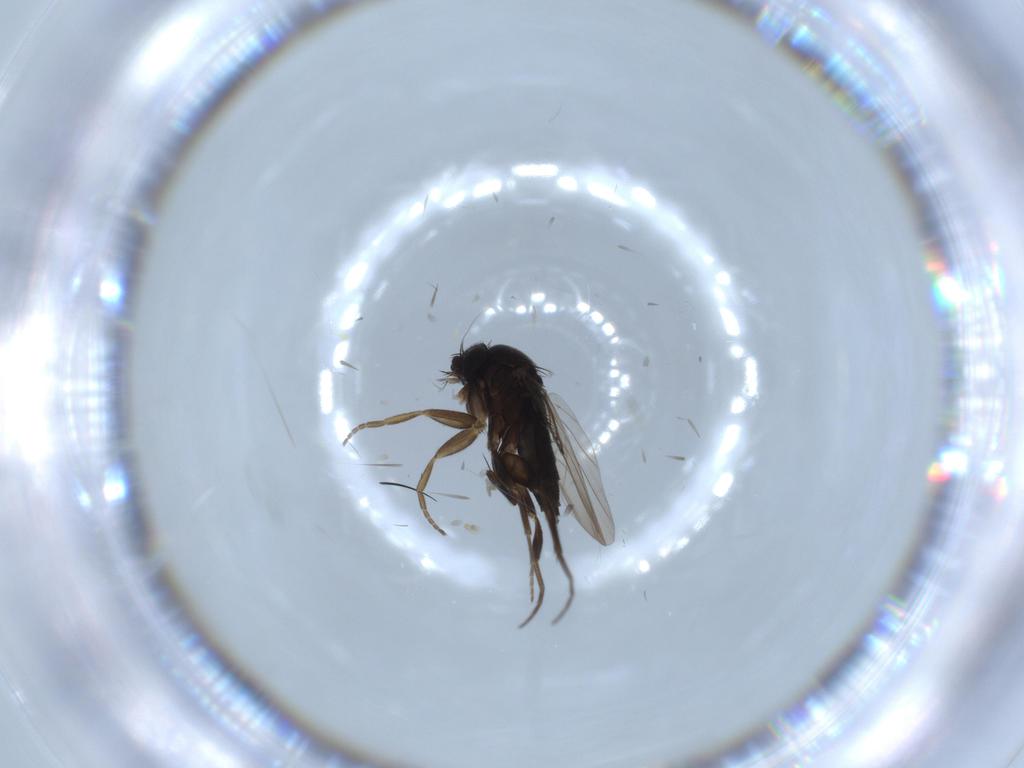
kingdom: Animalia
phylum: Arthropoda
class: Insecta
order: Diptera
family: Phoridae
